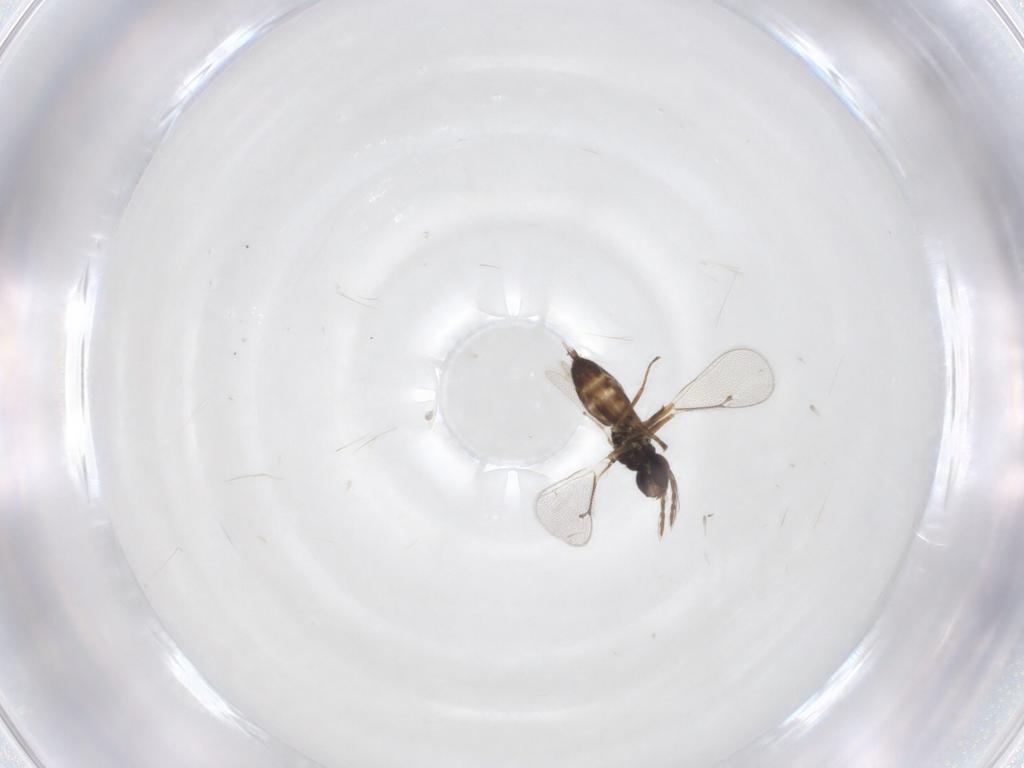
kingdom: Animalia
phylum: Arthropoda
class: Insecta
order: Hymenoptera
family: Eulophidae
